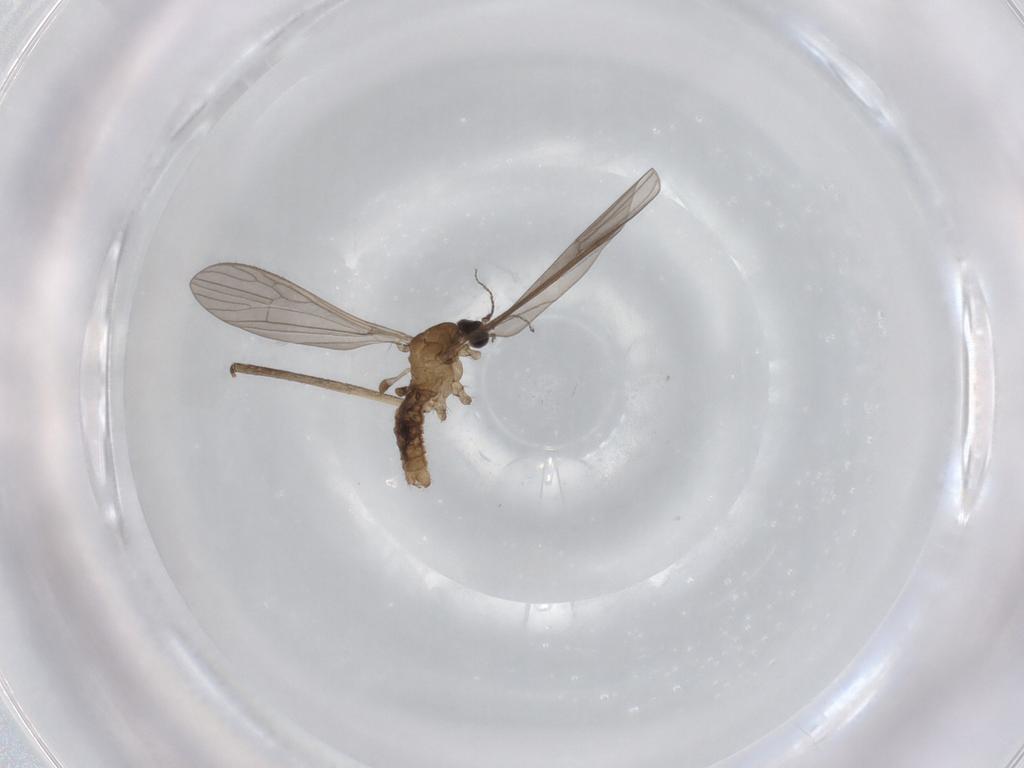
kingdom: Animalia
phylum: Arthropoda
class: Insecta
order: Diptera
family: Limoniidae
